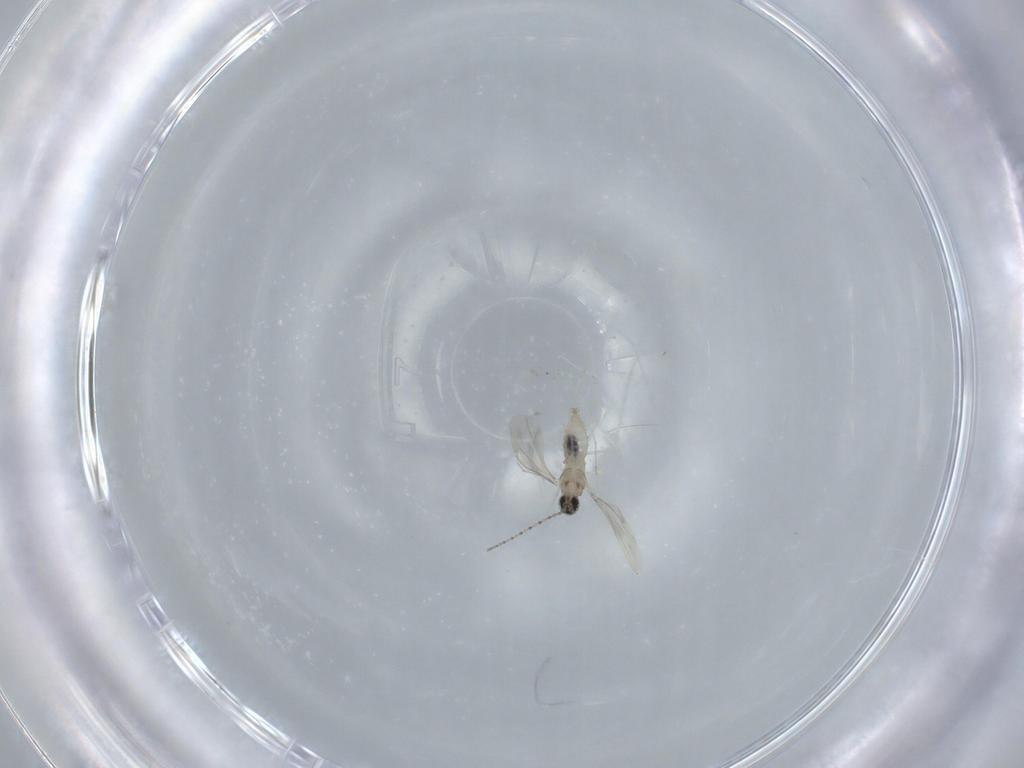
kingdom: Animalia
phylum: Arthropoda
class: Insecta
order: Diptera
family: Cecidomyiidae
